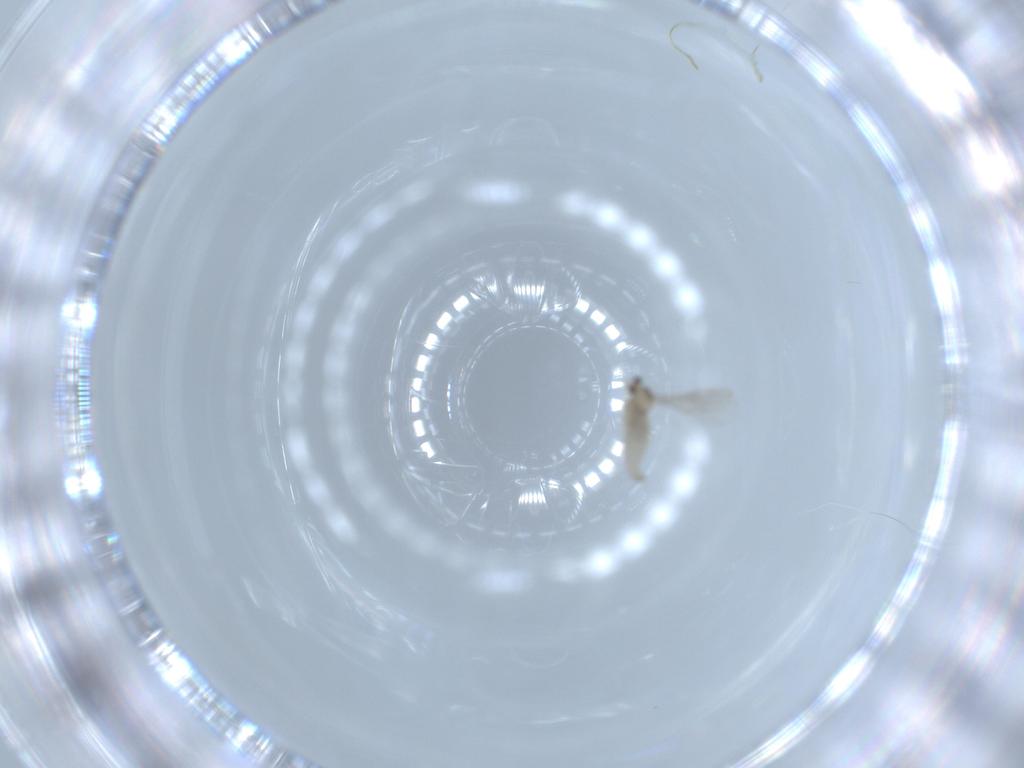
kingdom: Animalia
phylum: Arthropoda
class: Insecta
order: Diptera
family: Cecidomyiidae
